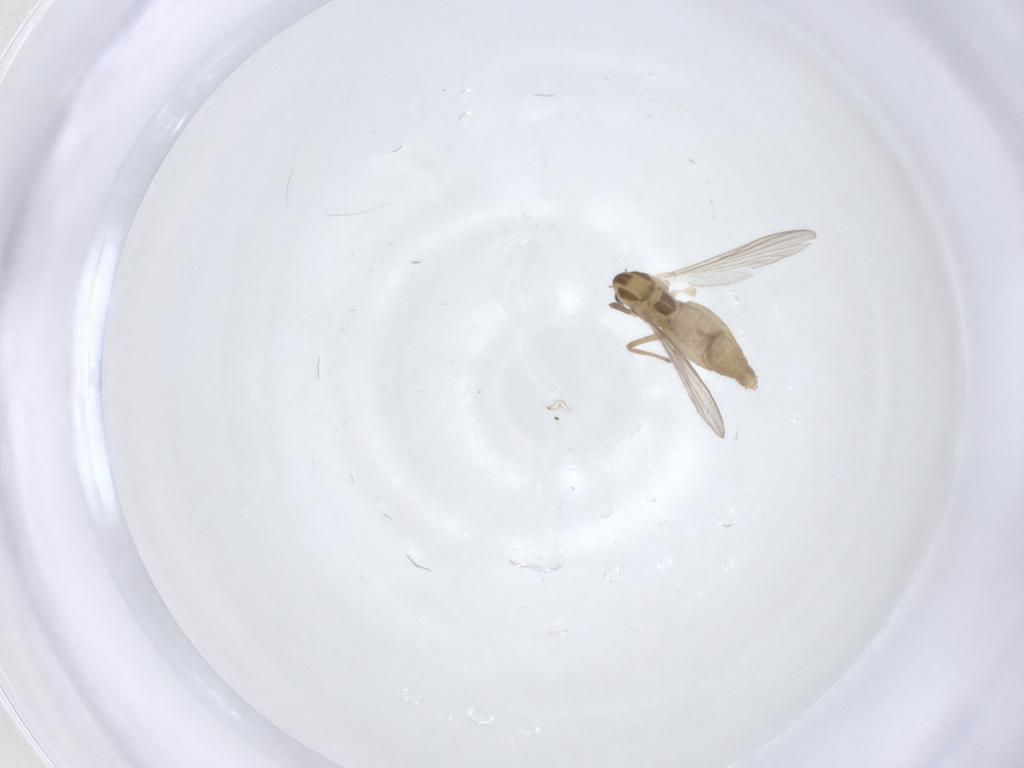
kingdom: Animalia
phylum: Arthropoda
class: Insecta
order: Diptera
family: Chironomidae
